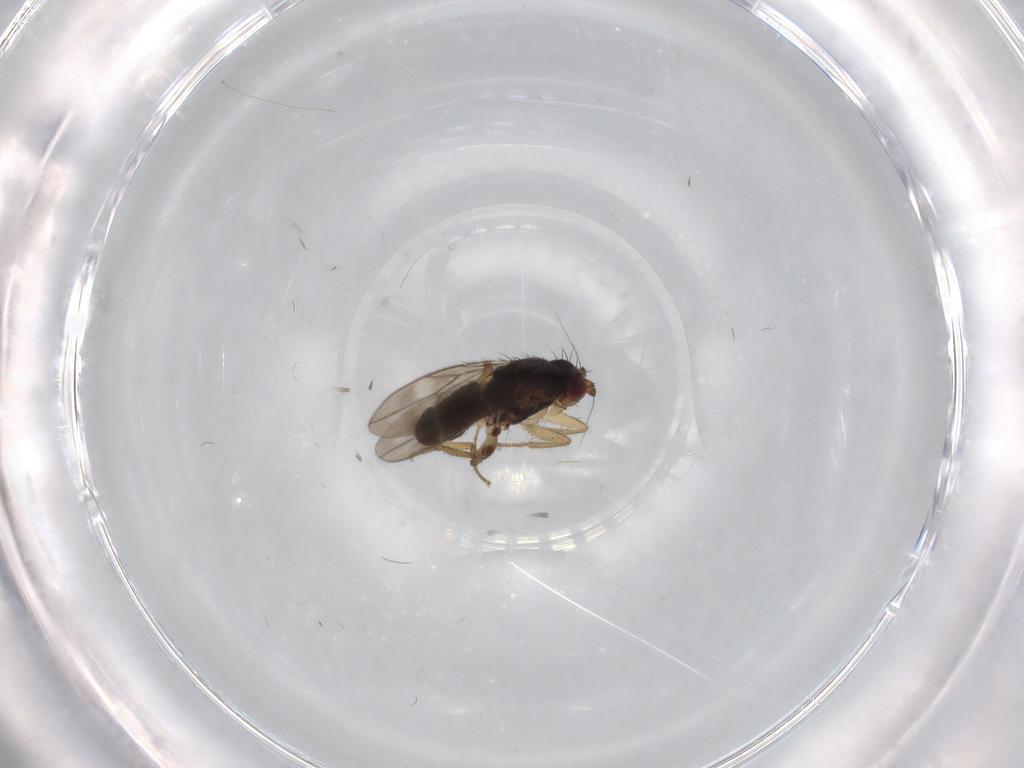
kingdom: Animalia
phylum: Arthropoda
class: Insecta
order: Diptera
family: Sphaeroceridae
